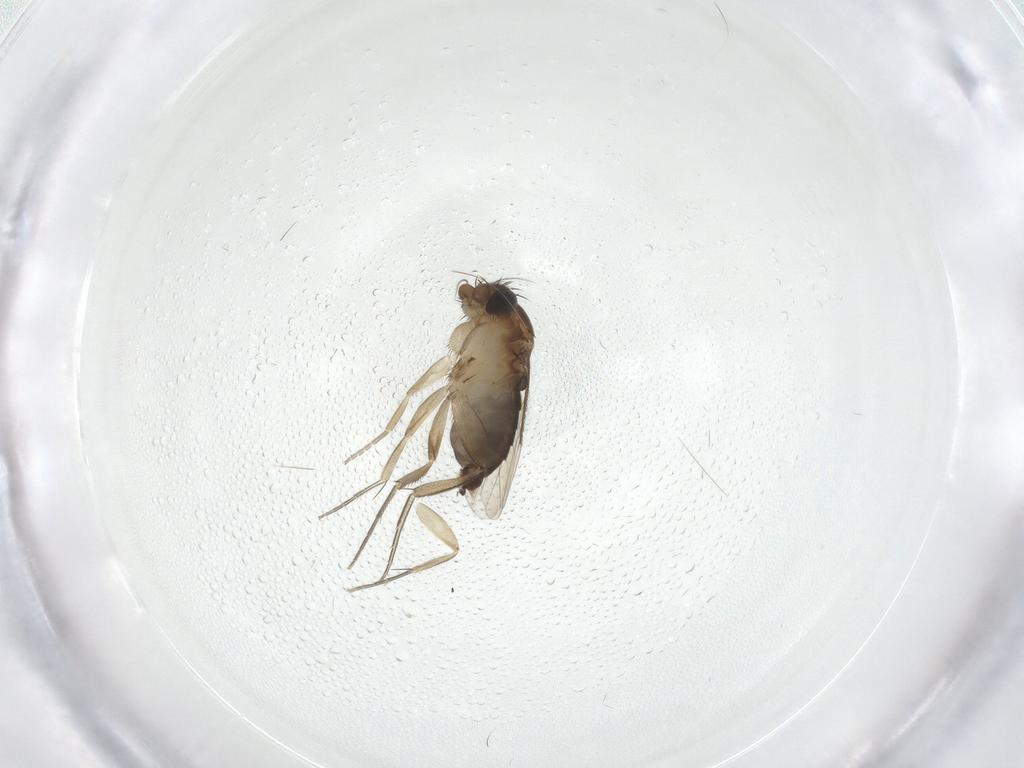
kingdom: Animalia
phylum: Arthropoda
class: Insecta
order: Diptera
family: Phoridae
